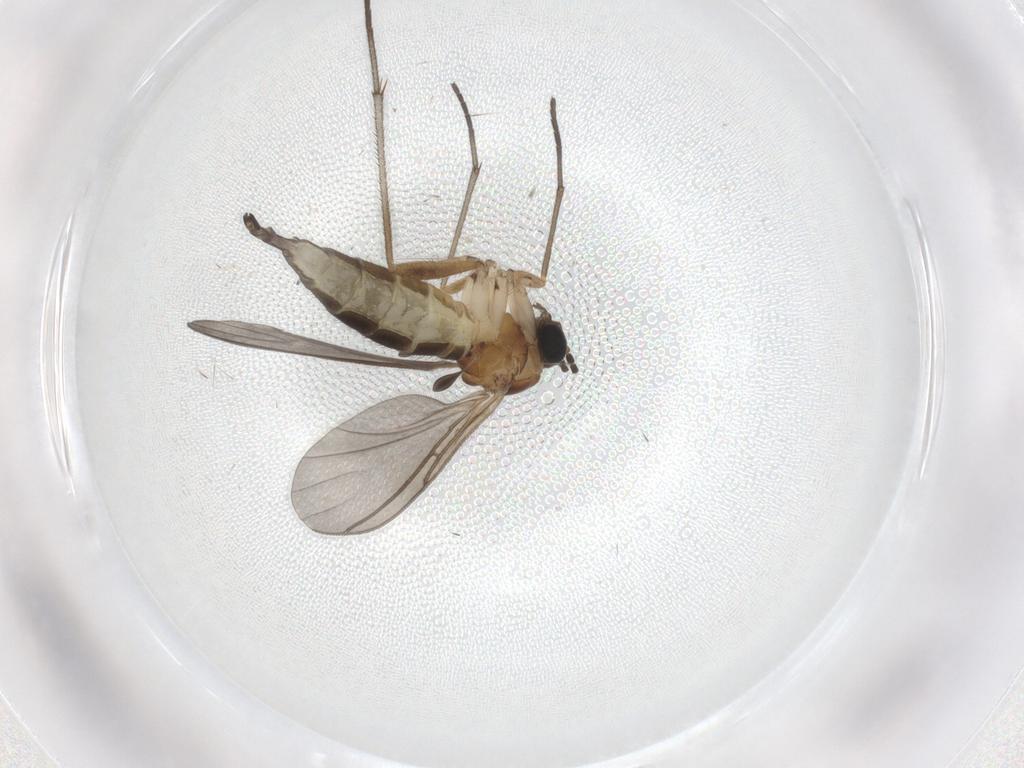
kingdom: Animalia
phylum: Arthropoda
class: Insecta
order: Diptera
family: Sciaridae
